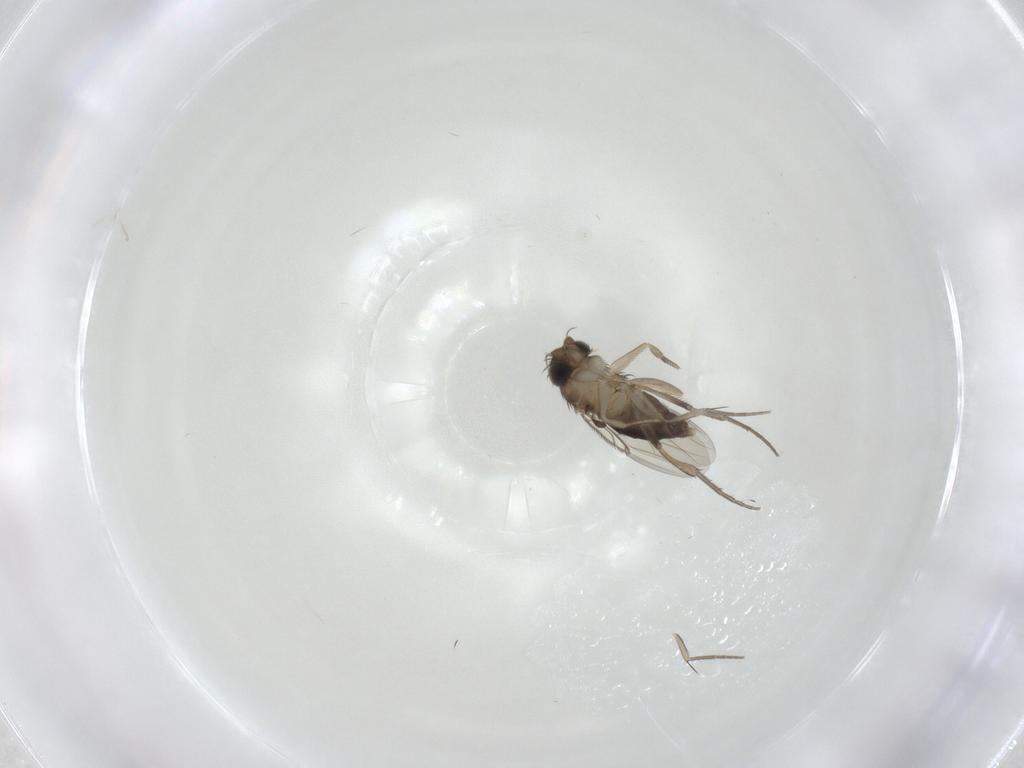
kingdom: Animalia
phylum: Arthropoda
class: Insecta
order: Diptera
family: Phoridae
